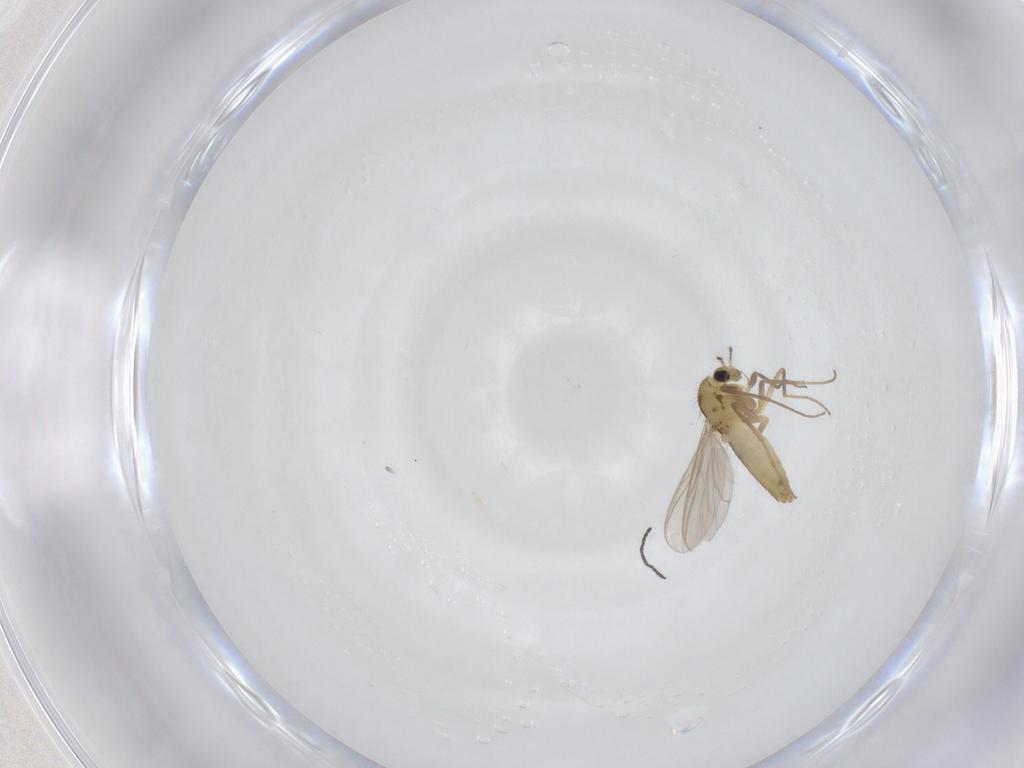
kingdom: Animalia
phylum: Arthropoda
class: Insecta
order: Diptera
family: Chironomidae
